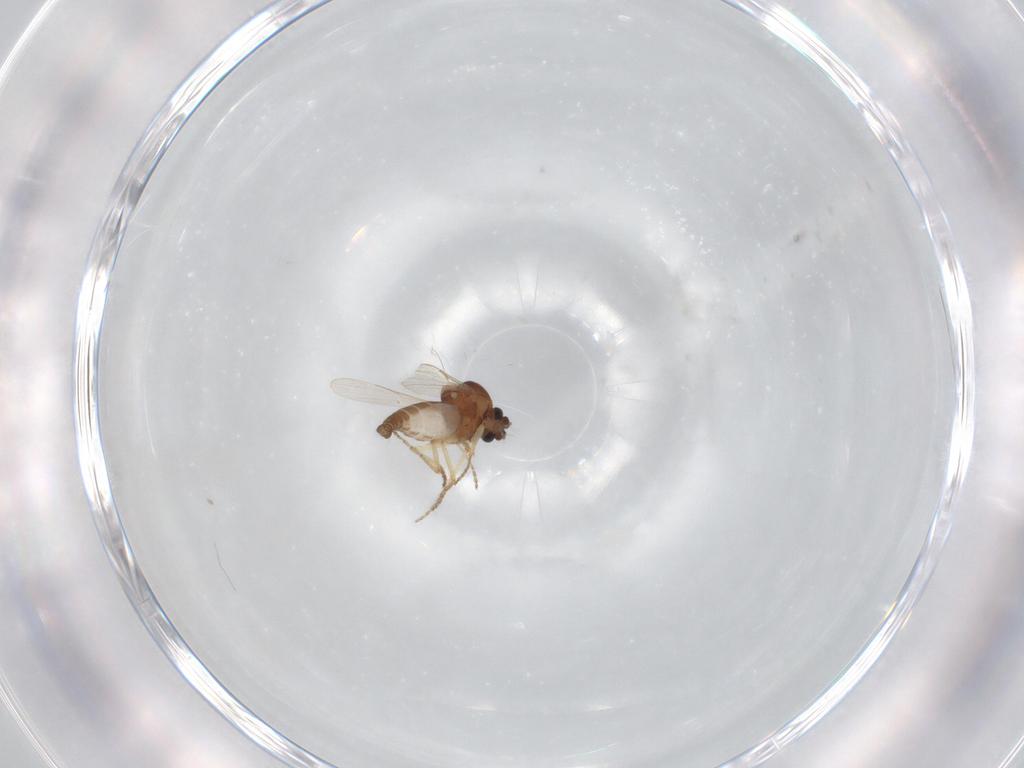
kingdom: Animalia
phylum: Arthropoda
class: Insecta
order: Diptera
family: Ceratopogonidae
